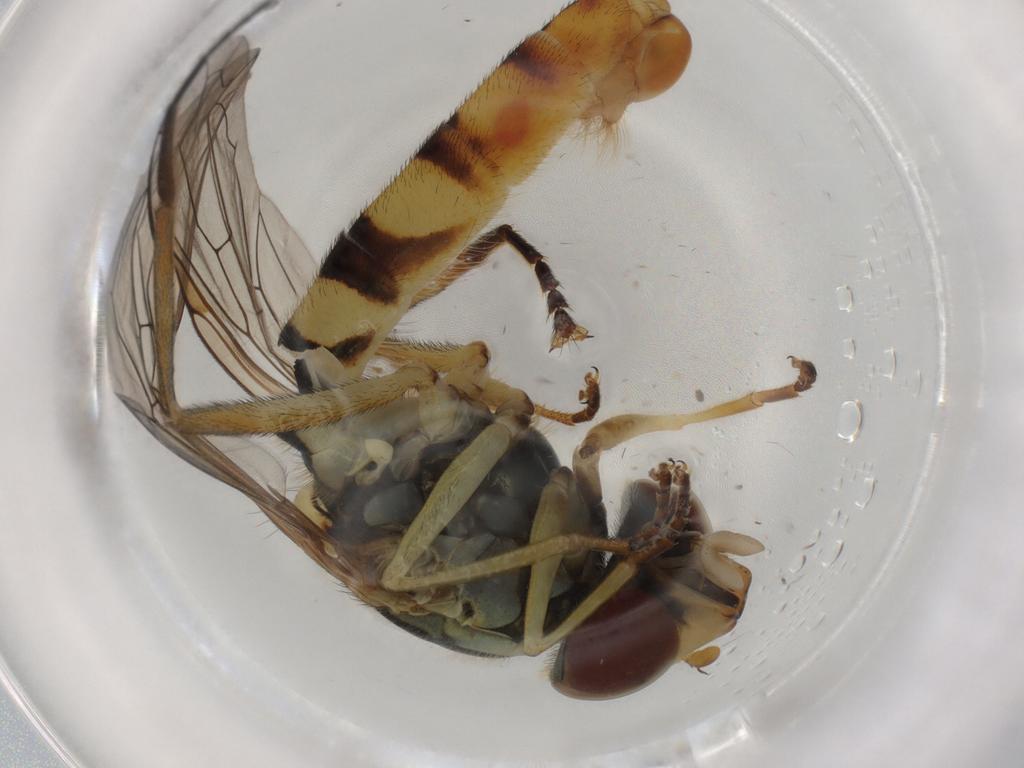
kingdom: Animalia
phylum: Arthropoda
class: Insecta
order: Diptera
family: Syrphidae
